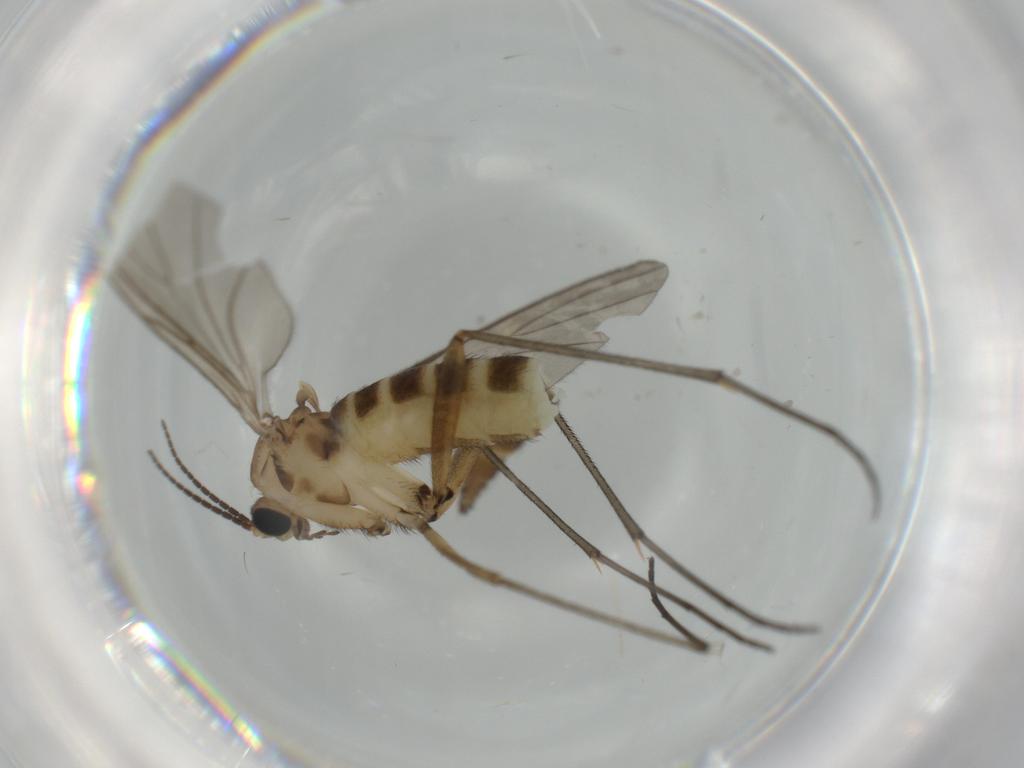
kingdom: Animalia
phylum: Arthropoda
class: Insecta
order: Diptera
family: Sciaridae
